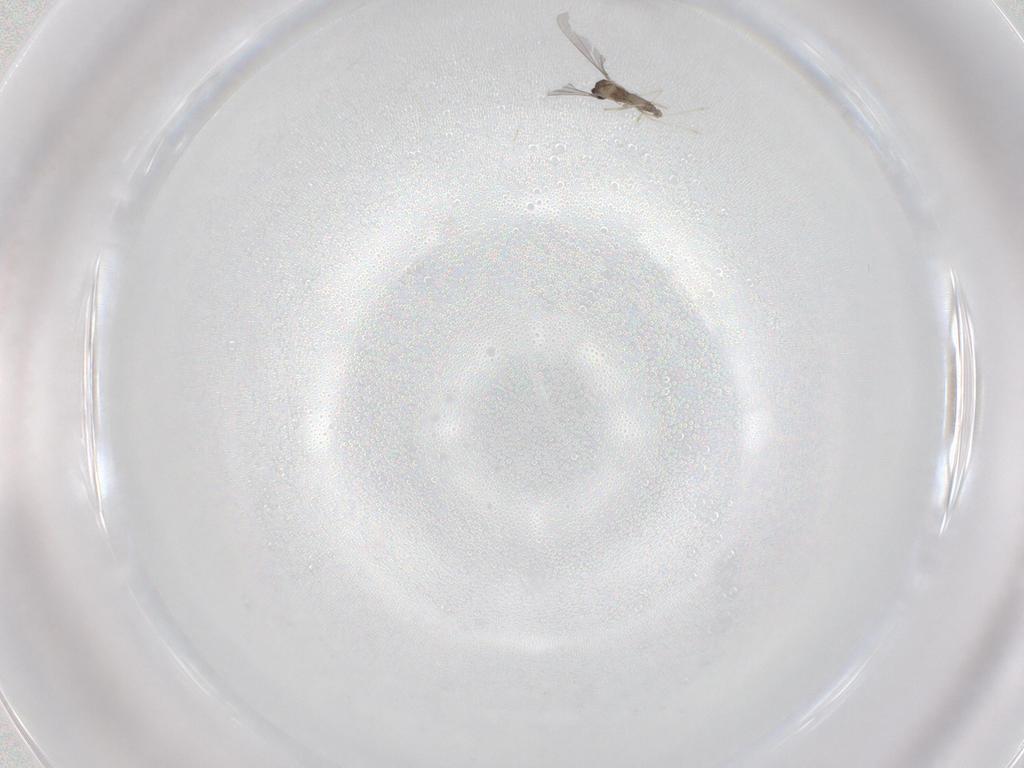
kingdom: Animalia
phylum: Arthropoda
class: Insecta
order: Diptera
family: Cecidomyiidae
